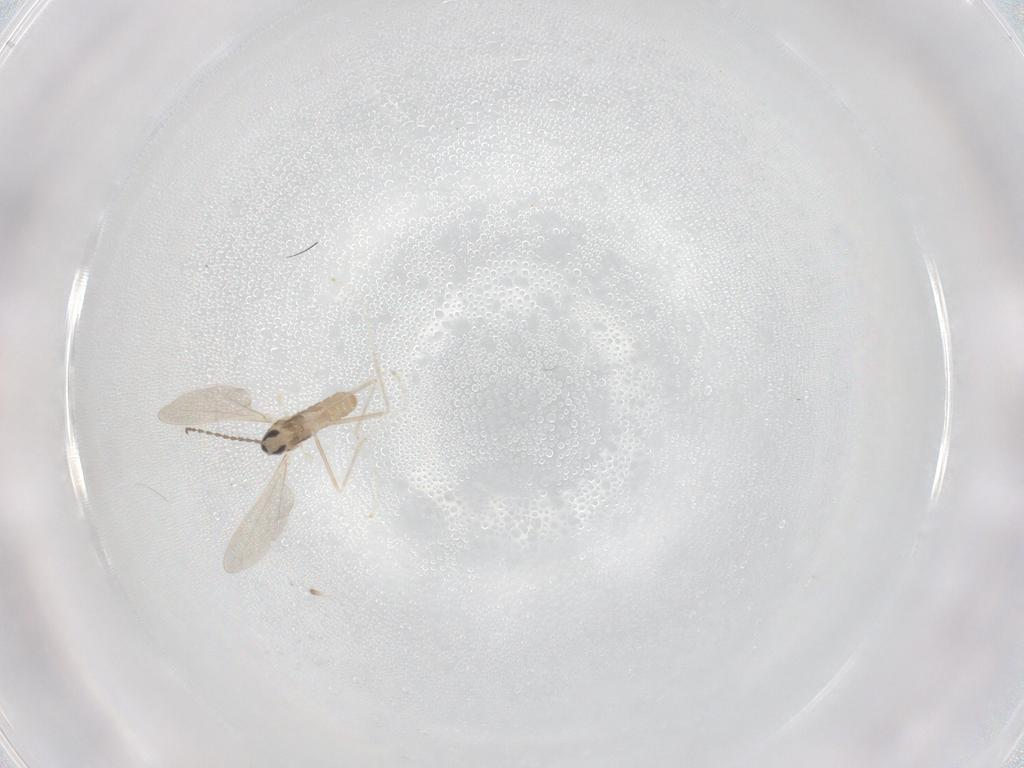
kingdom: Animalia
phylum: Arthropoda
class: Insecta
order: Diptera
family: Cecidomyiidae
